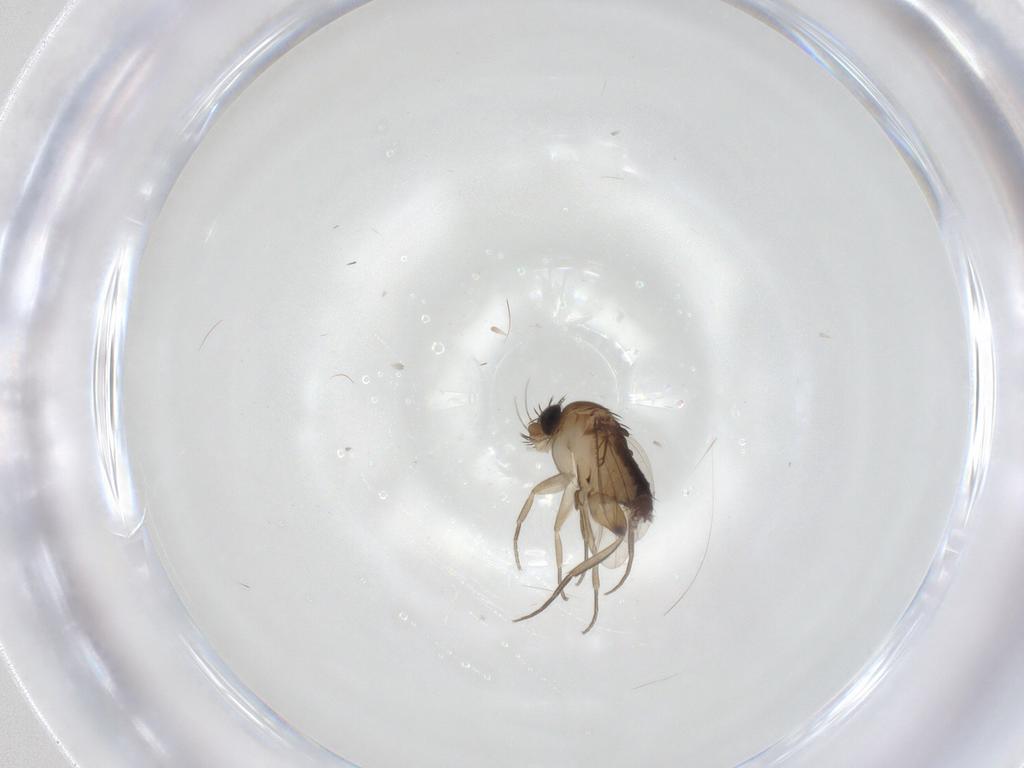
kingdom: Animalia
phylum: Arthropoda
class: Insecta
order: Diptera
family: Phoridae
